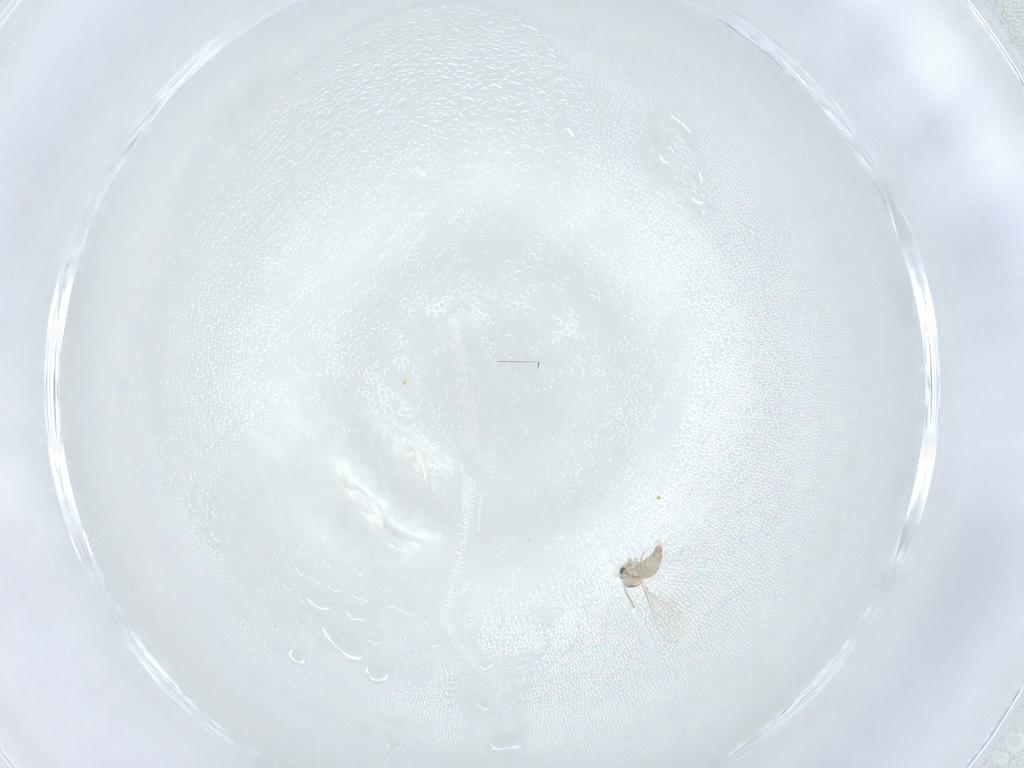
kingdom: Animalia
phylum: Arthropoda
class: Insecta
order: Diptera
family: Cecidomyiidae
